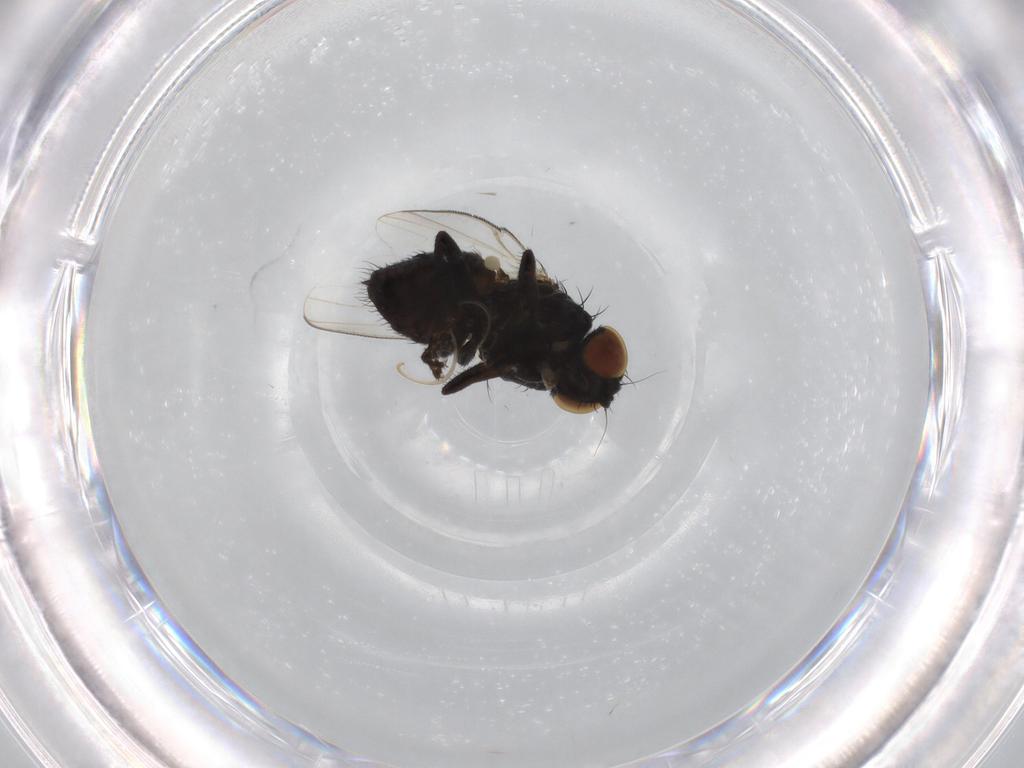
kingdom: Animalia
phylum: Arthropoda
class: Insecta
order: Diptera
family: Milichiidae
